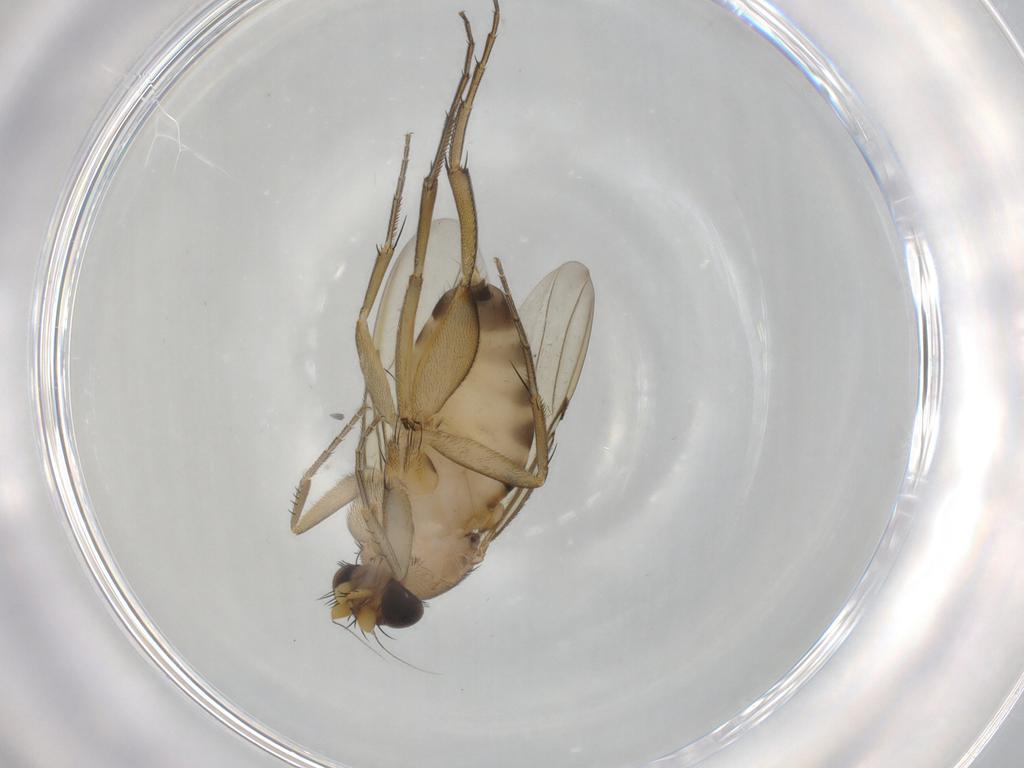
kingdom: Animalia
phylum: Arthropoda
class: Insecta
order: Diptera
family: Phoridae
